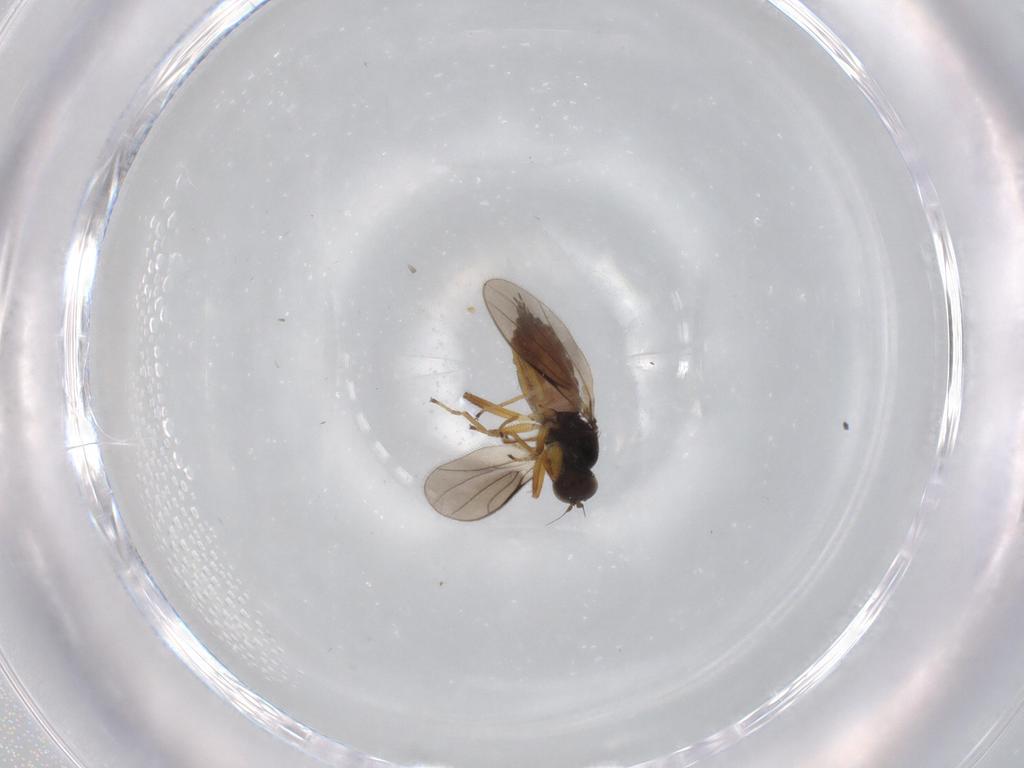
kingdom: Animalia
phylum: Arthropoda
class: Insecta
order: Diptera
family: Hybotidae
